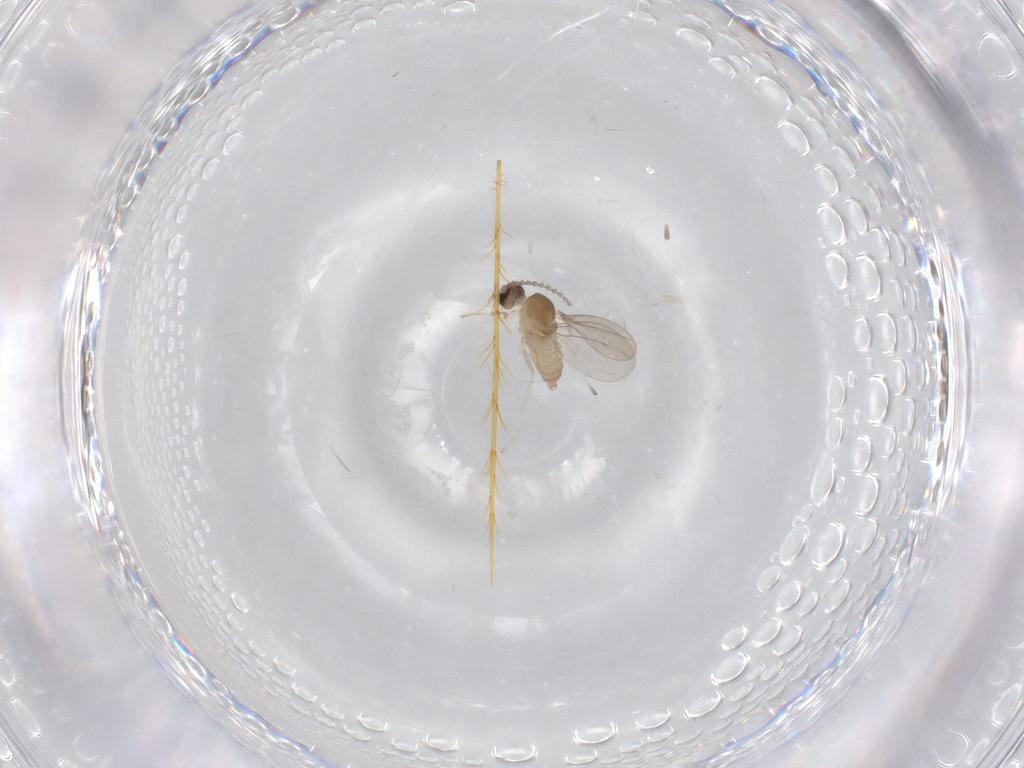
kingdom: Animalia
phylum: Arthropoda
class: Insecta
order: Diptera
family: Cecidomyiidae
